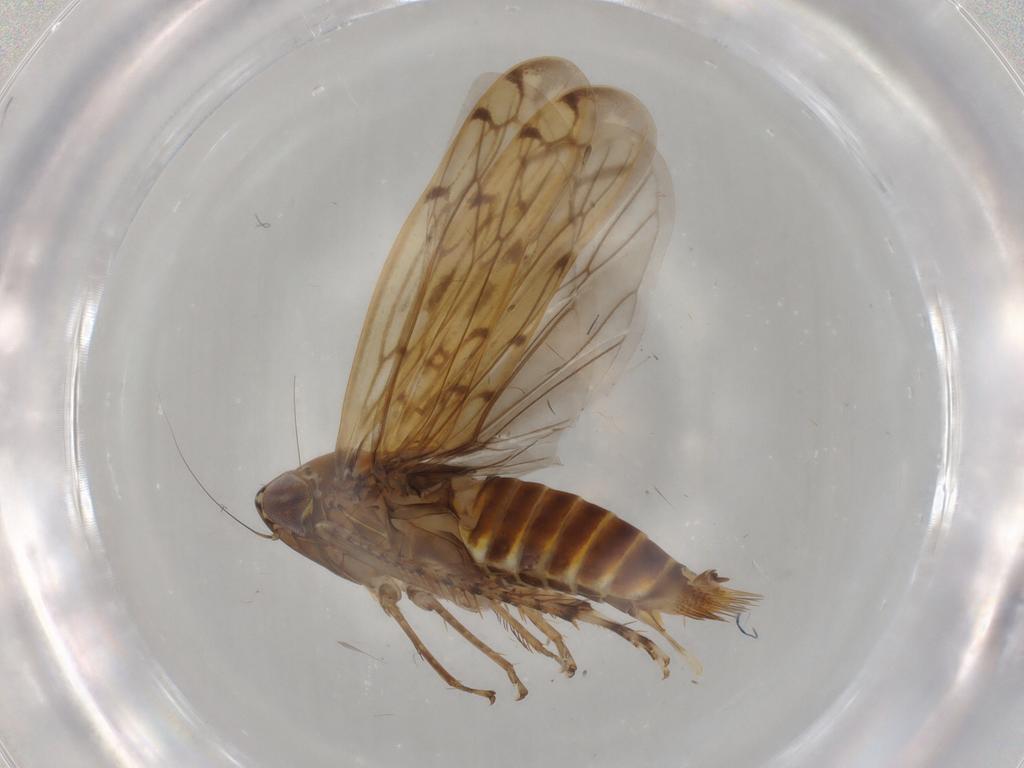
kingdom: Animalia
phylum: Arthropoda
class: Insecta
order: Hemiptera
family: Cicadellidae
